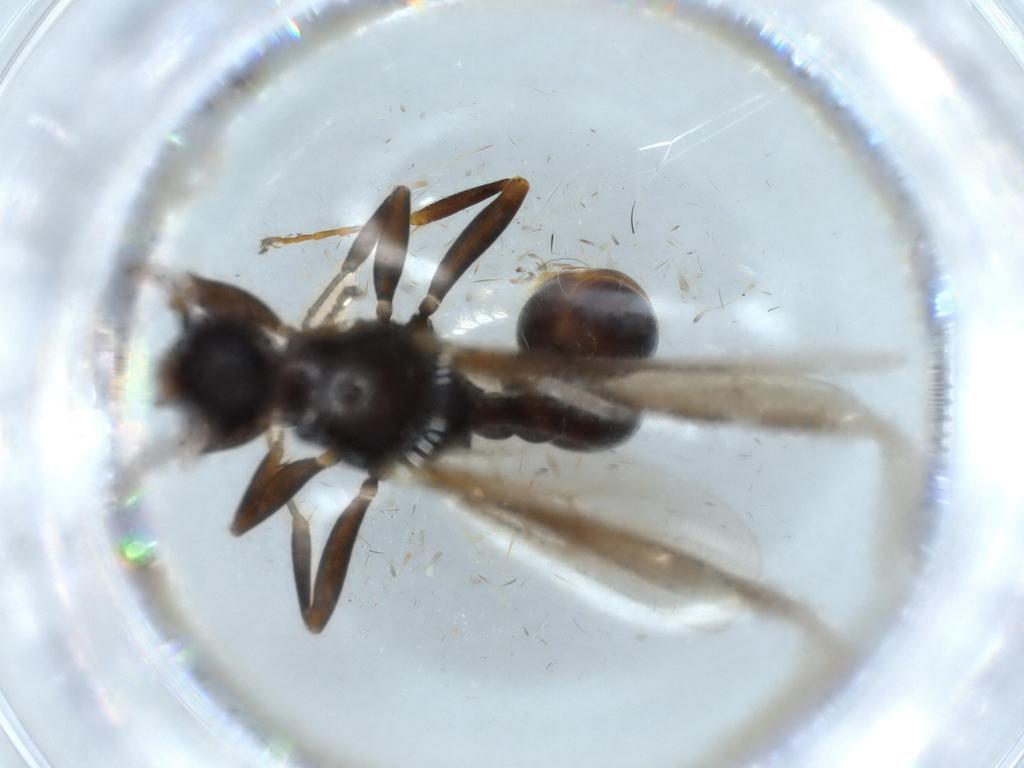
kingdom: Animalia
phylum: Arthropoda
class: Insecta
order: Hymenoptera
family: Formicidae
